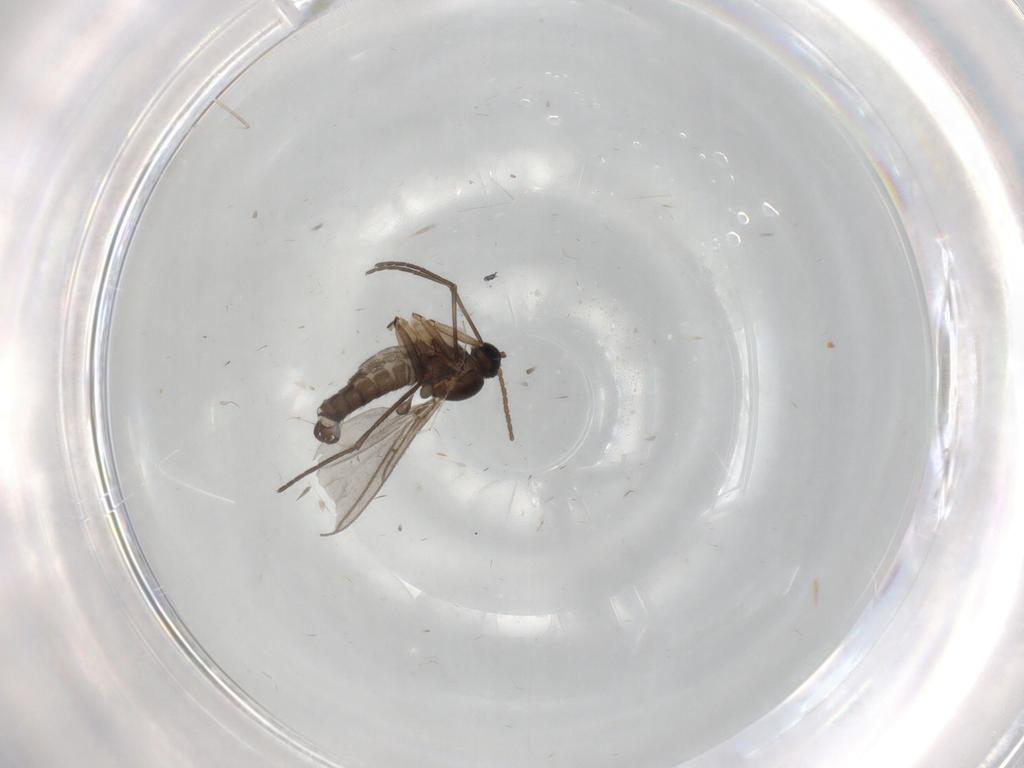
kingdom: Animalia
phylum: Arthropoda
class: Insecta
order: Diptera
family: Sciaridae
